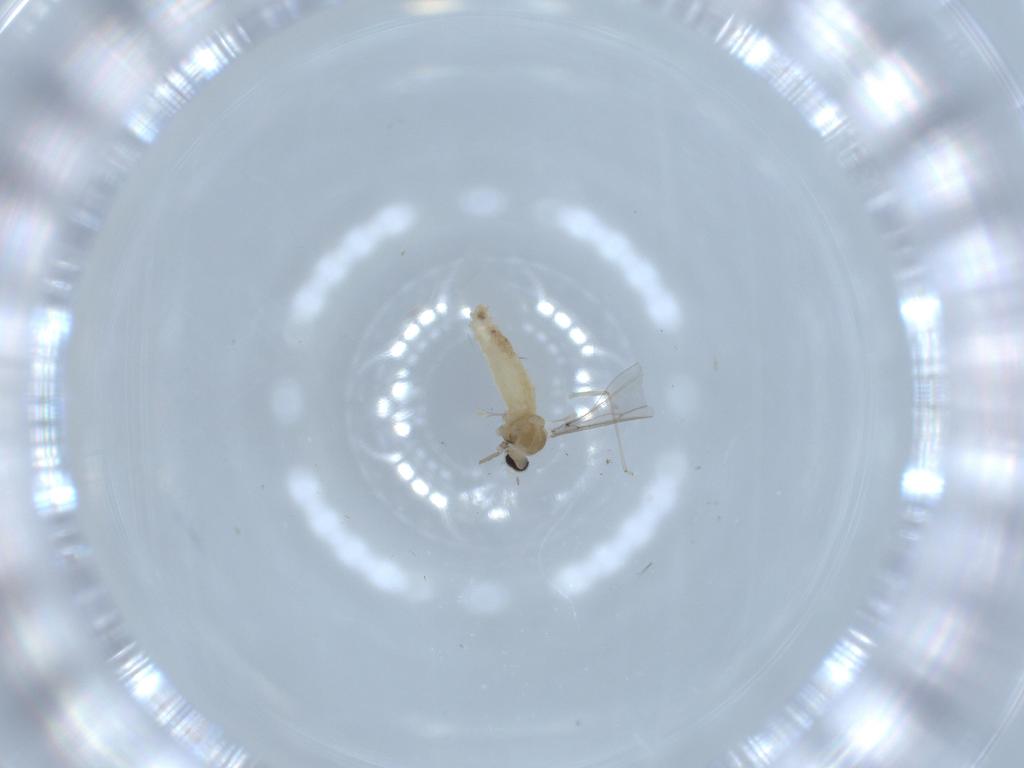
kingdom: Animalia
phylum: Arthropoda
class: Insecta
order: Diptera
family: Cecidomyiidae
